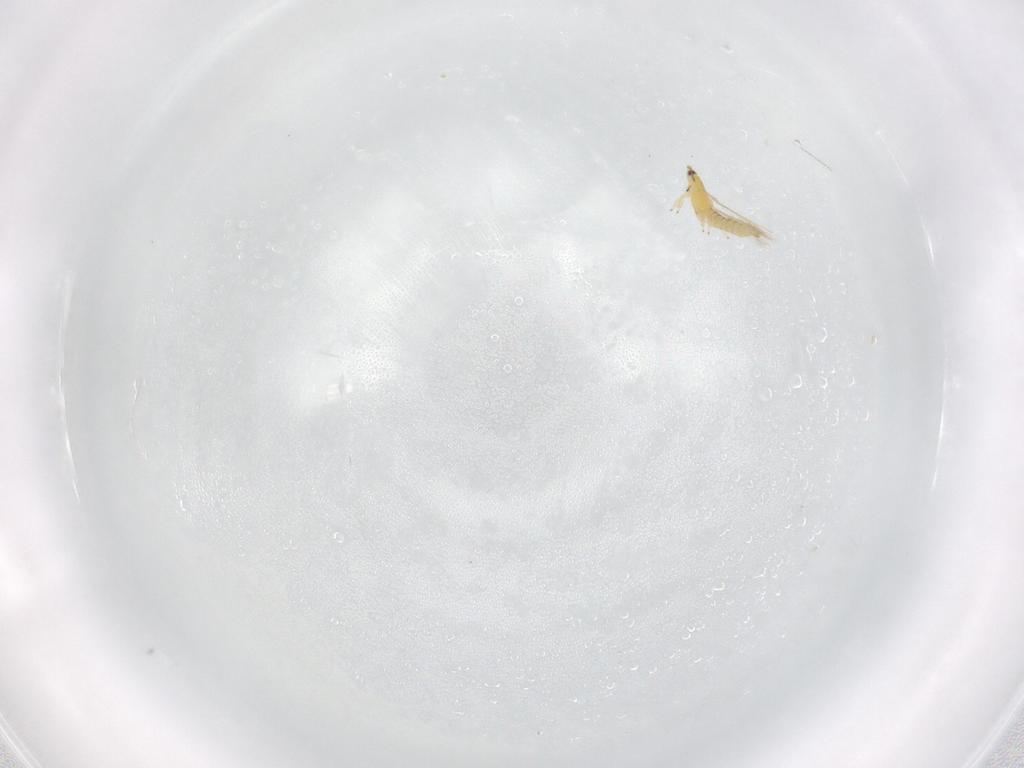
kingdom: Animalia
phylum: Arthropoda
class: Insecta
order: Thysanoptera
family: Thripidae
